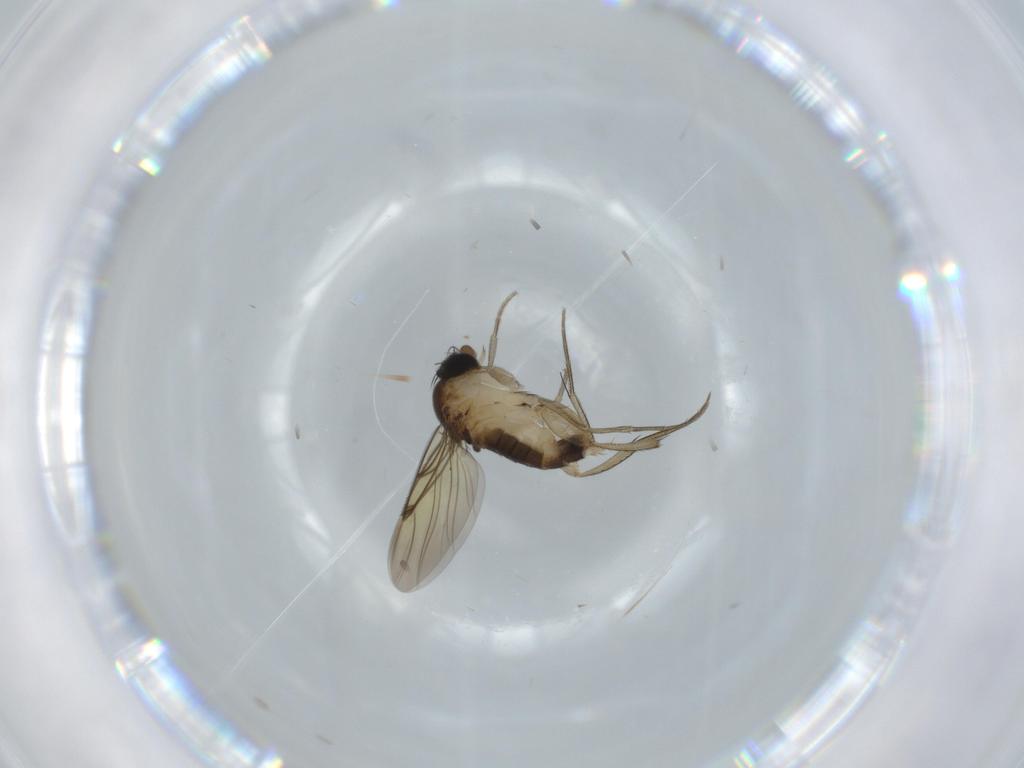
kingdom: Animalia
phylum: Arthropoda
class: Insecta
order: Diptera
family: Phoridae
